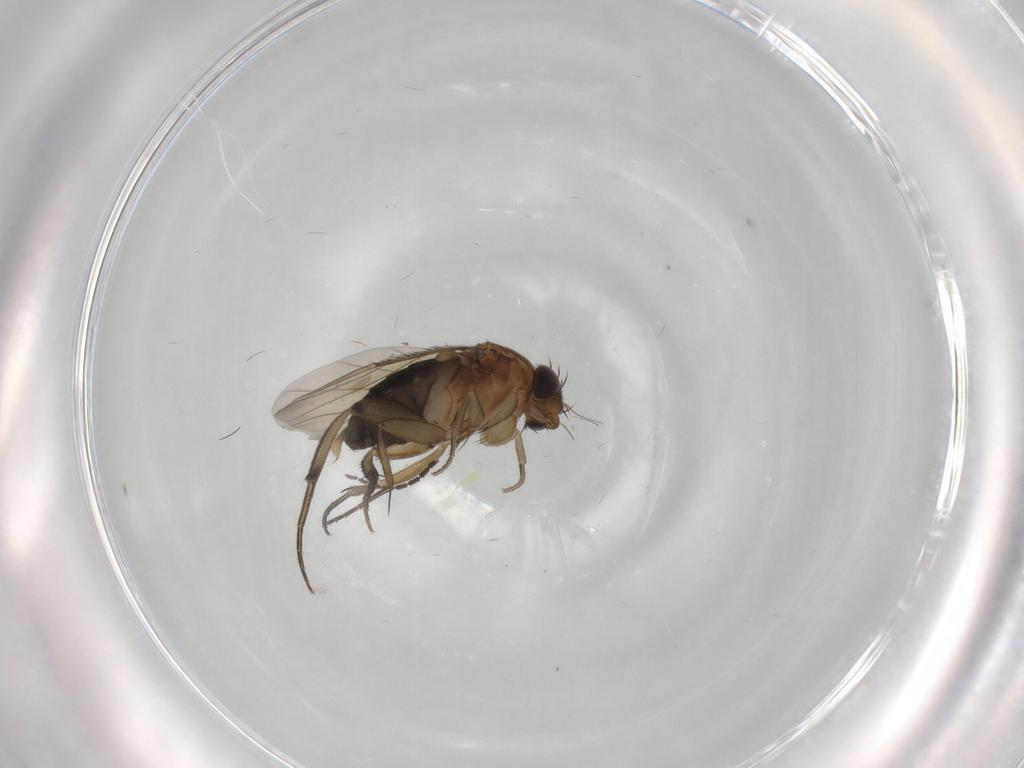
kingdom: Animalia
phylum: Arthropoda
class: Insecta
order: Diptera
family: Sciaridae
